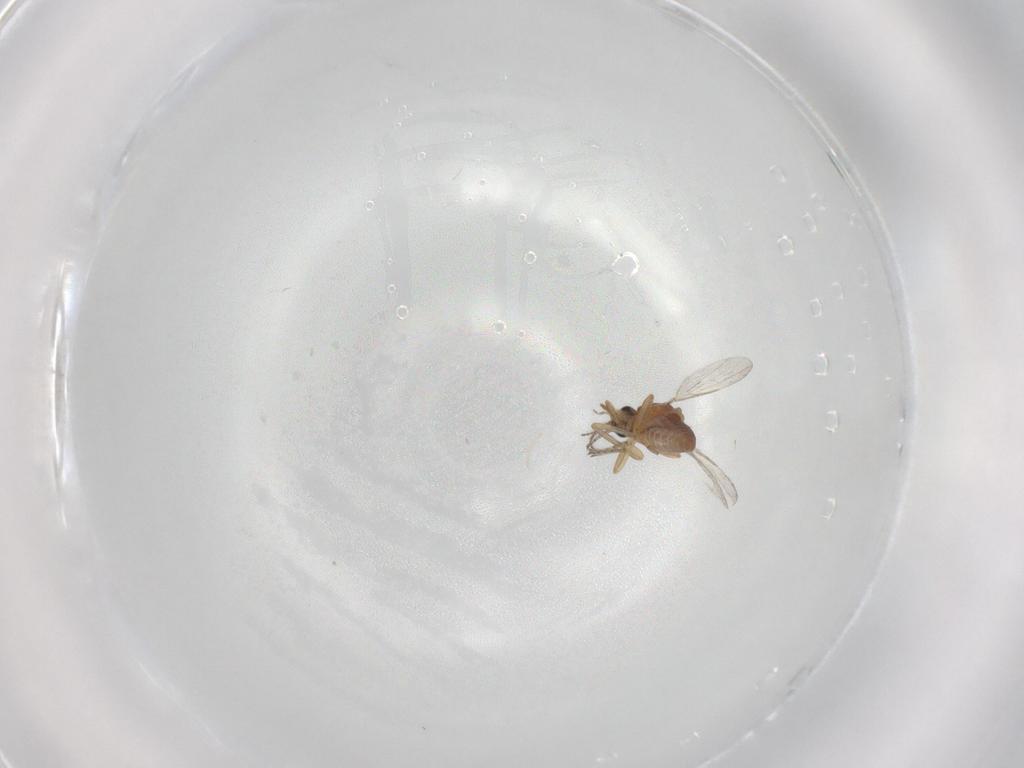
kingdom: Animalia
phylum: Arthropoda
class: Insecta
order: Diptera
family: Ceratopogonidae
